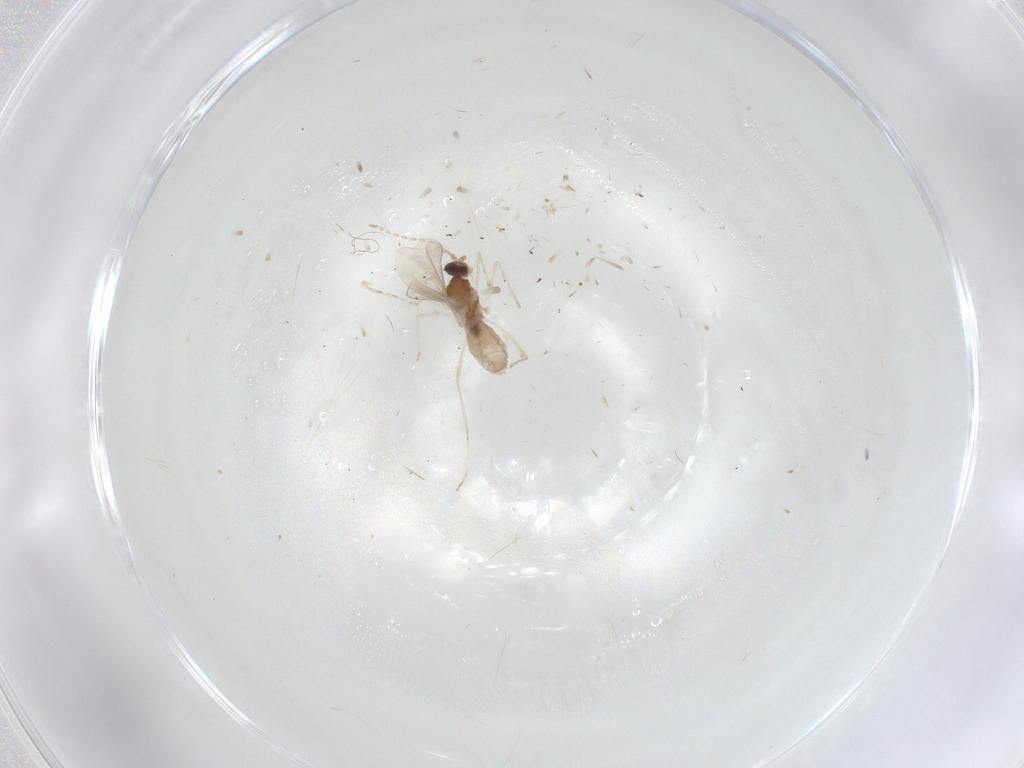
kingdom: Animalia
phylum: Arthropoda
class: Insecta
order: Diptera
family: Cecidomyiidae
